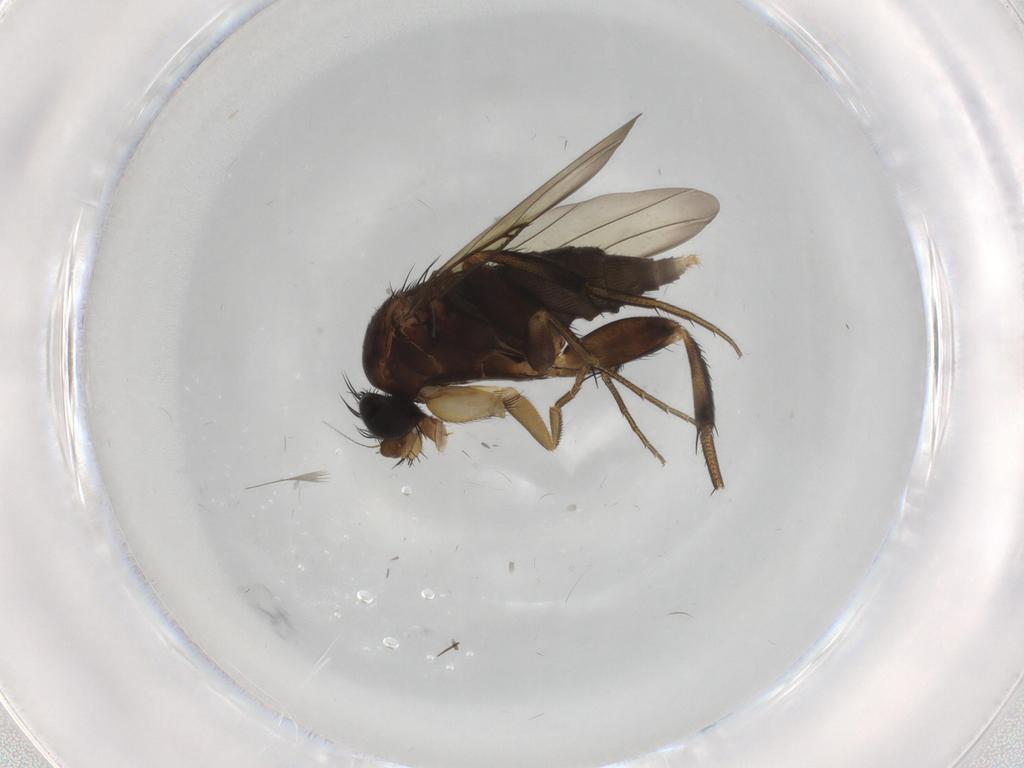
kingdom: Animalia
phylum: Arthropoda
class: Insecta
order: Diptera
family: Phoridae
